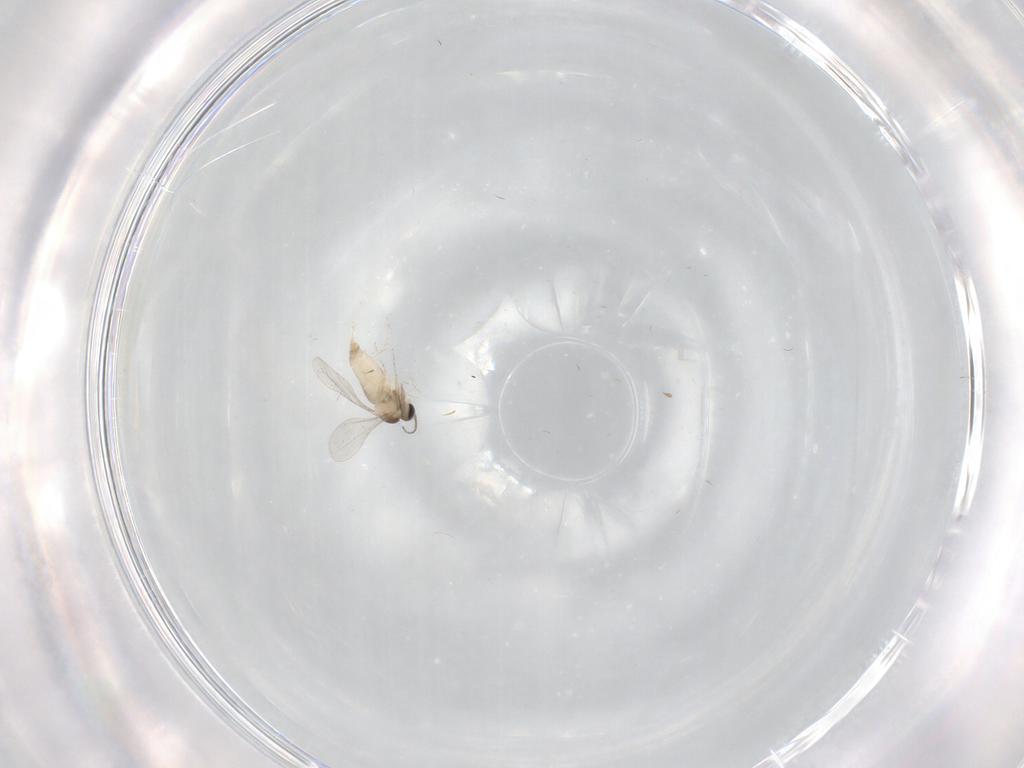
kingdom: Animalia
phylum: Arthropoda
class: Insecta
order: Diptera
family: Ceratopogonidae
